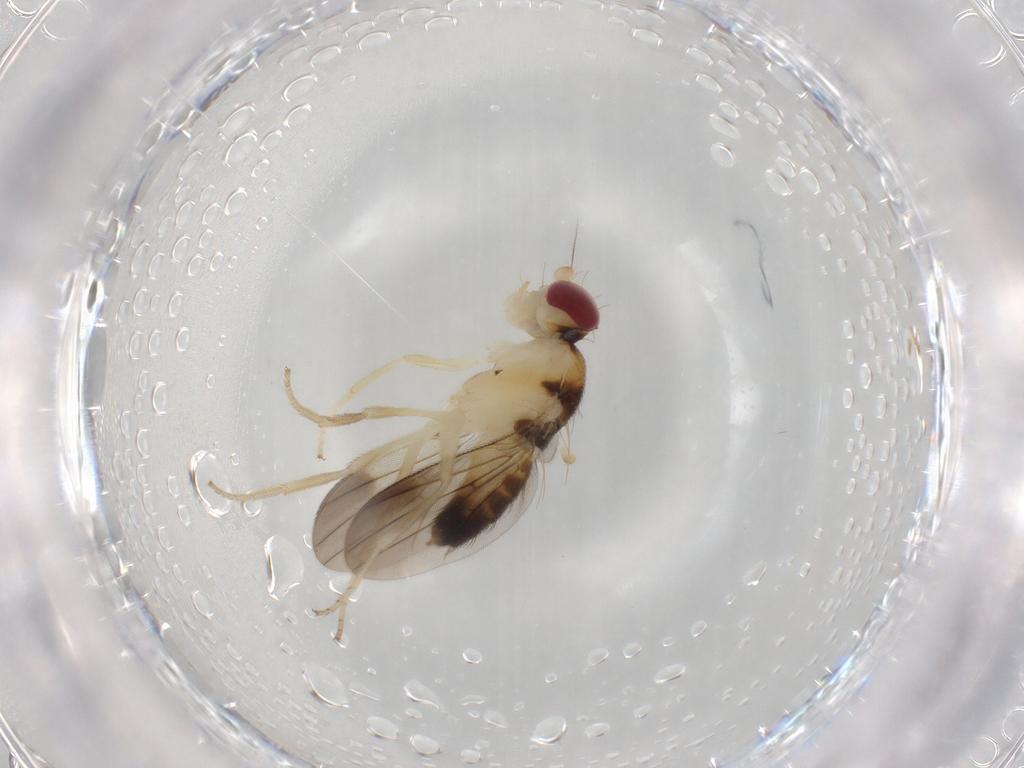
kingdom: Animalia
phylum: Arthropoda
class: Insecta
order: Diptera
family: Clusiidae
